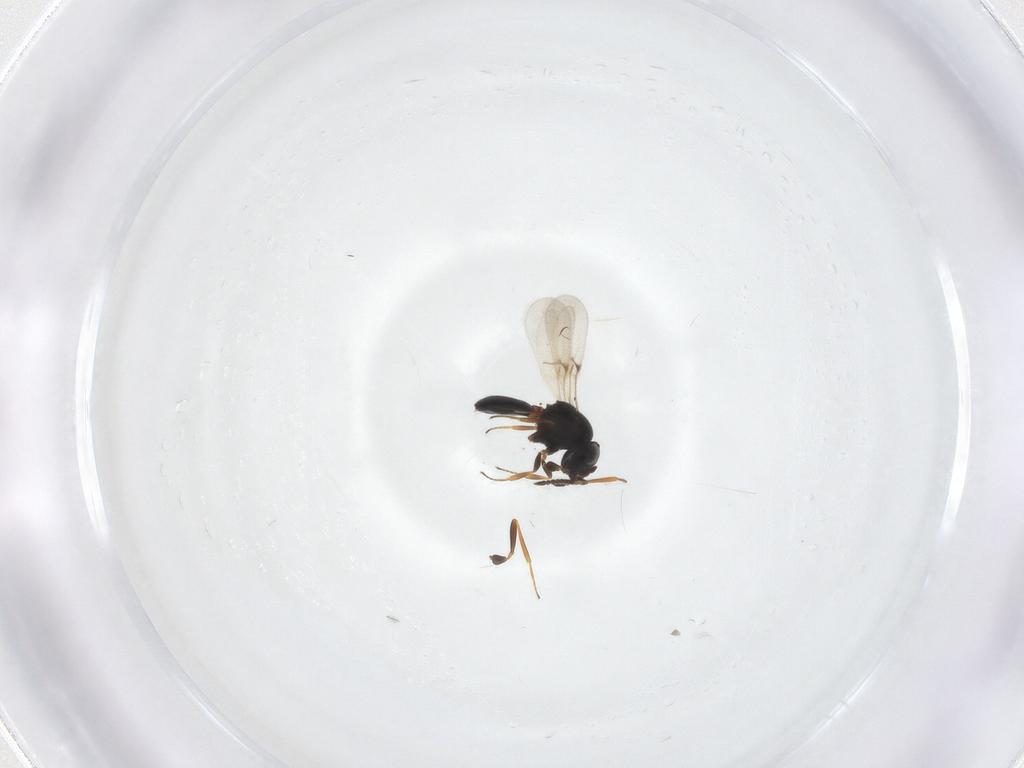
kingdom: Animalia
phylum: Arthropoda
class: Arachnida
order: Araneae
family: Pholcidae
